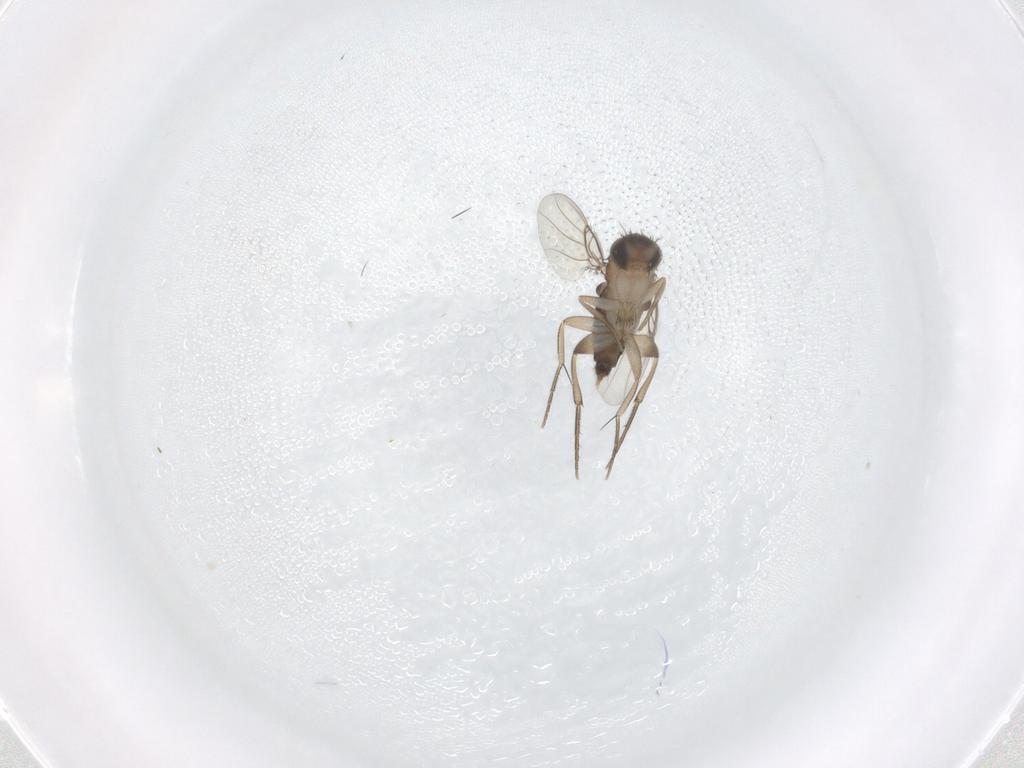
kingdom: Animalia
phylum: Arthropoda
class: Insecta
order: Diptera
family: Phoridae
